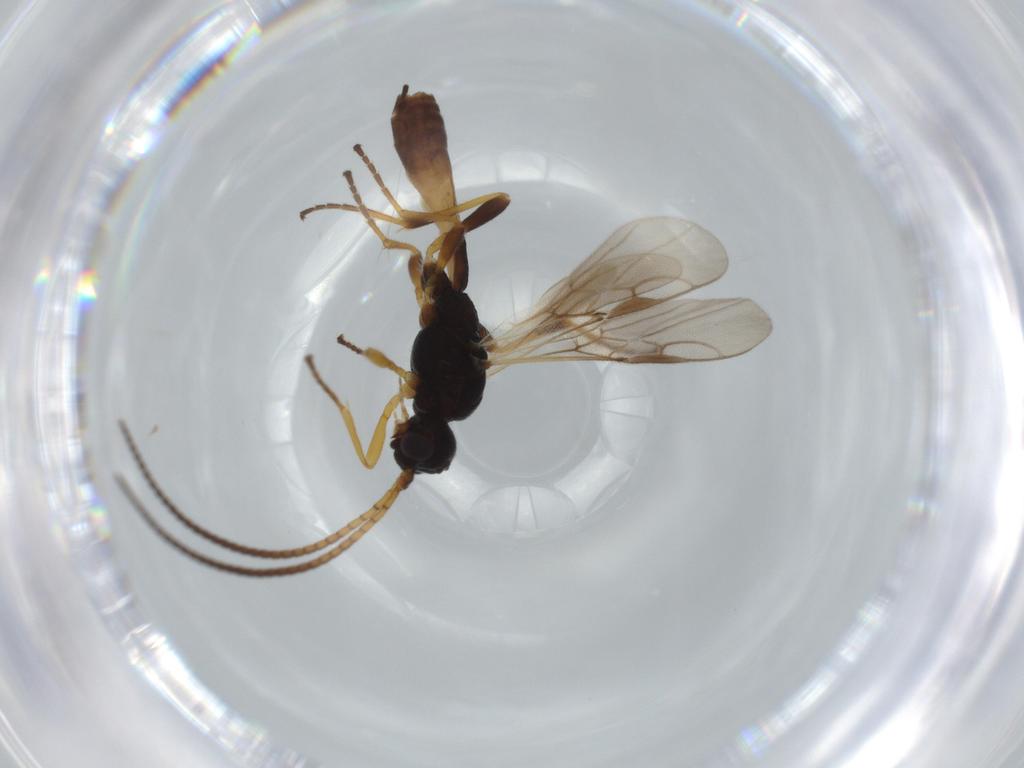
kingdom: Animalia
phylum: Arthropoda
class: Insecta
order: Hymenoptera
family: Braconidae
